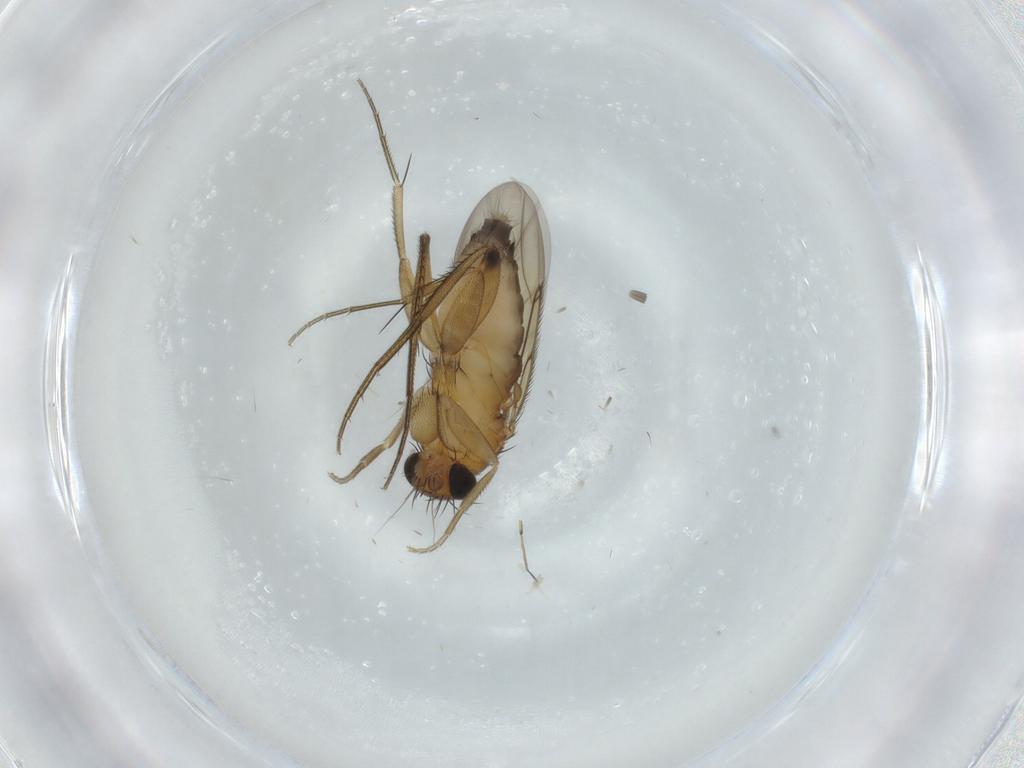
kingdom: Animalia
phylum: Arthropoda
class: Insecta
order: Diptera
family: Phoridae
